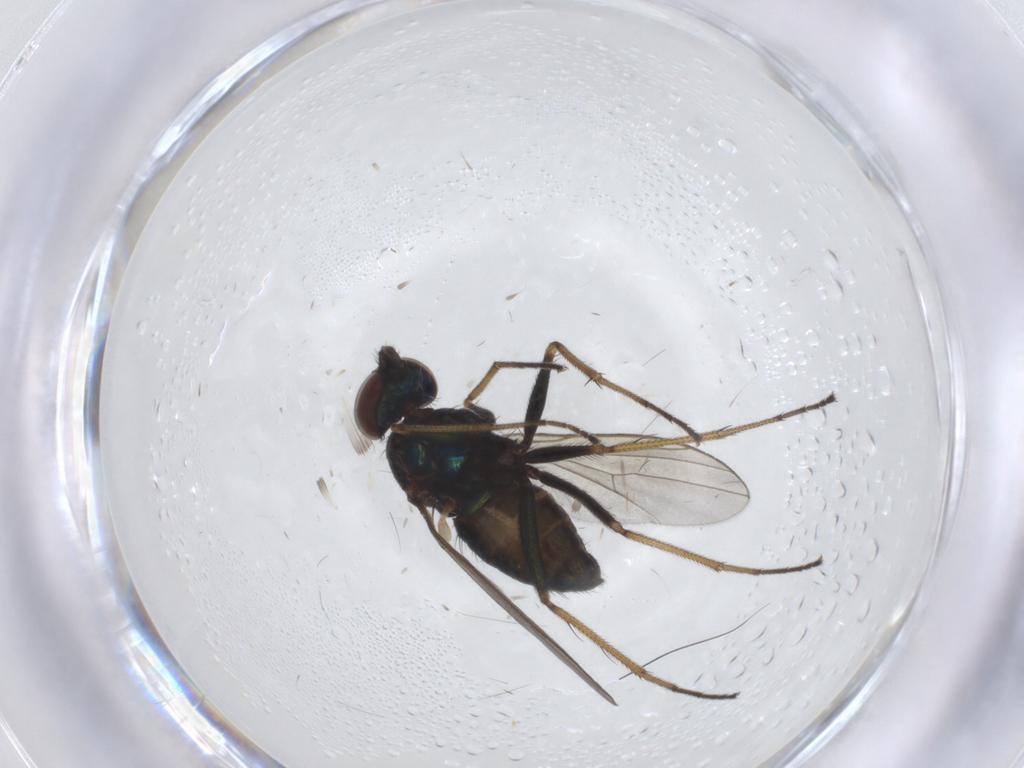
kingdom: Animalia
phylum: Arthropoda
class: Insecta
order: Diptera
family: Dolichopodidae
